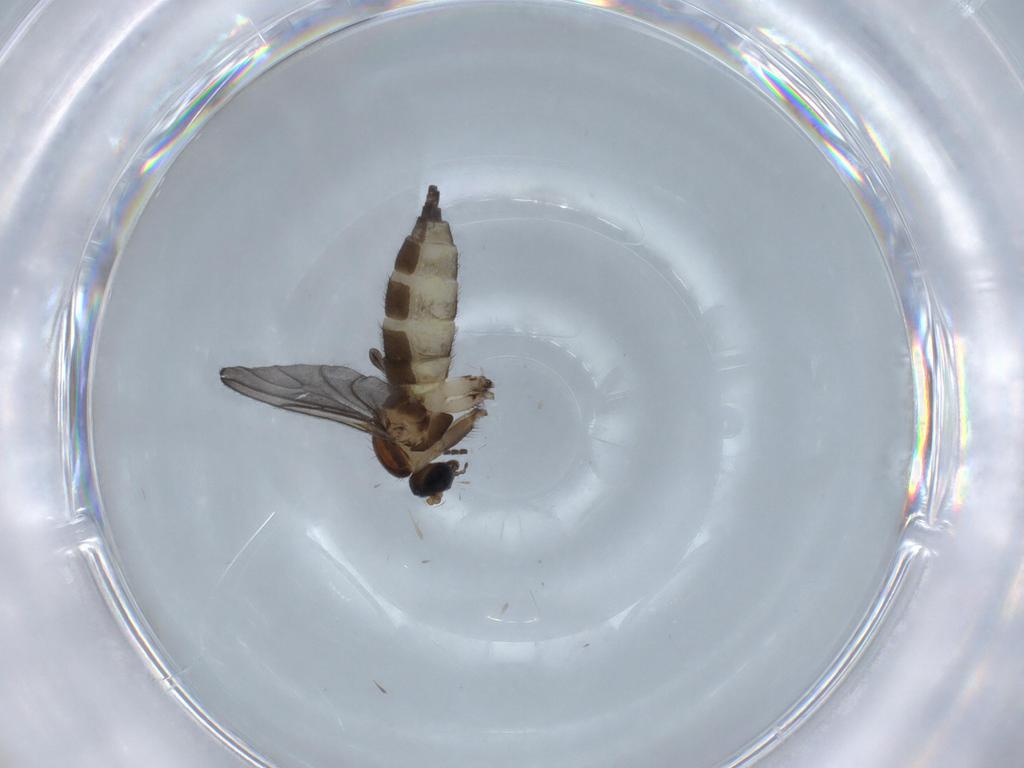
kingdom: Animalia
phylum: Arthropoda
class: Insecta
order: Diptera
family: Sciaridae
